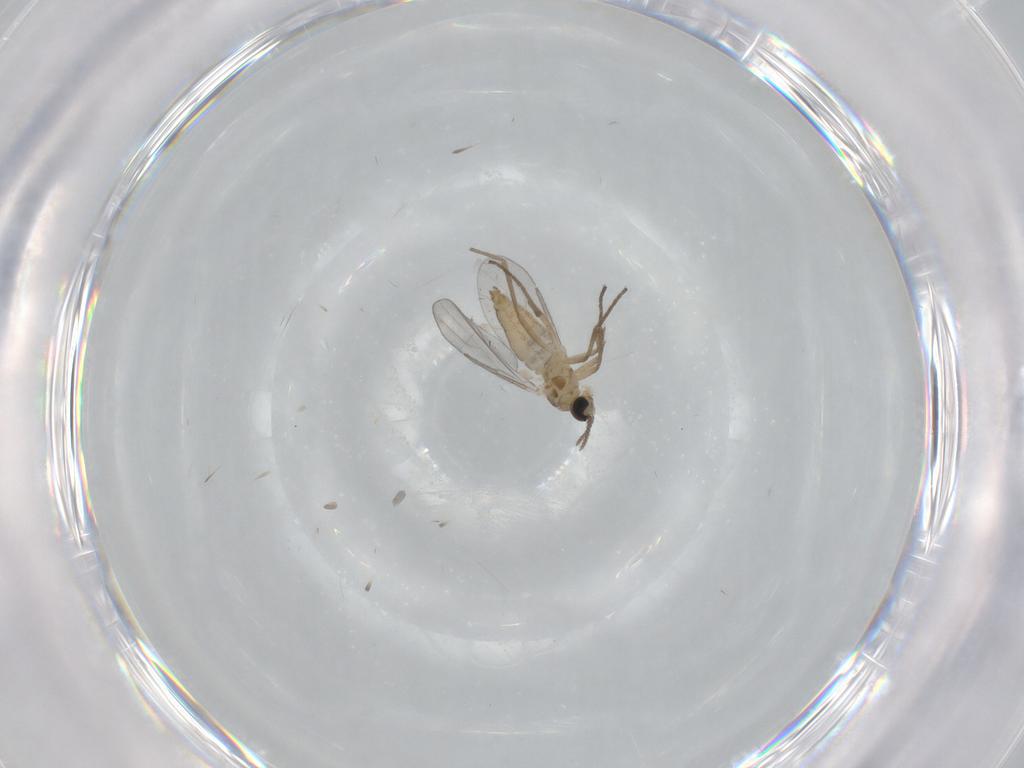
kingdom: Animalia
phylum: Arthropoda
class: Insecta
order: Diptera
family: Cecidomyiidae
